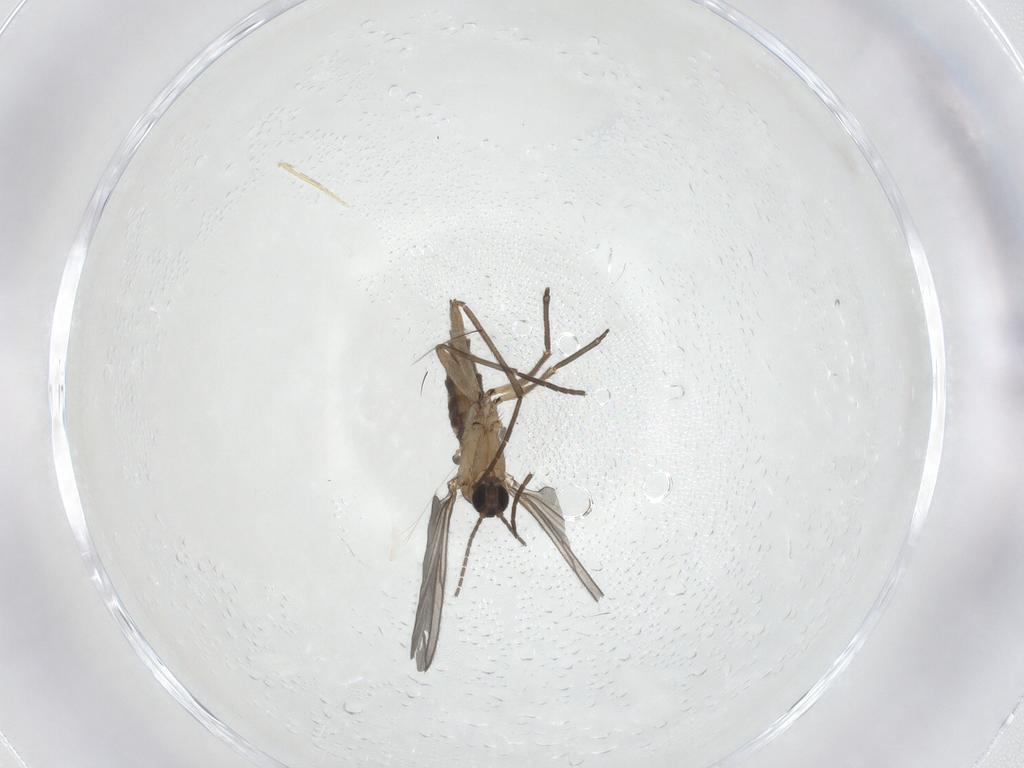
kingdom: Animalia
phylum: Arthropoda
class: Insecta
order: Diptera
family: Sciaridae
